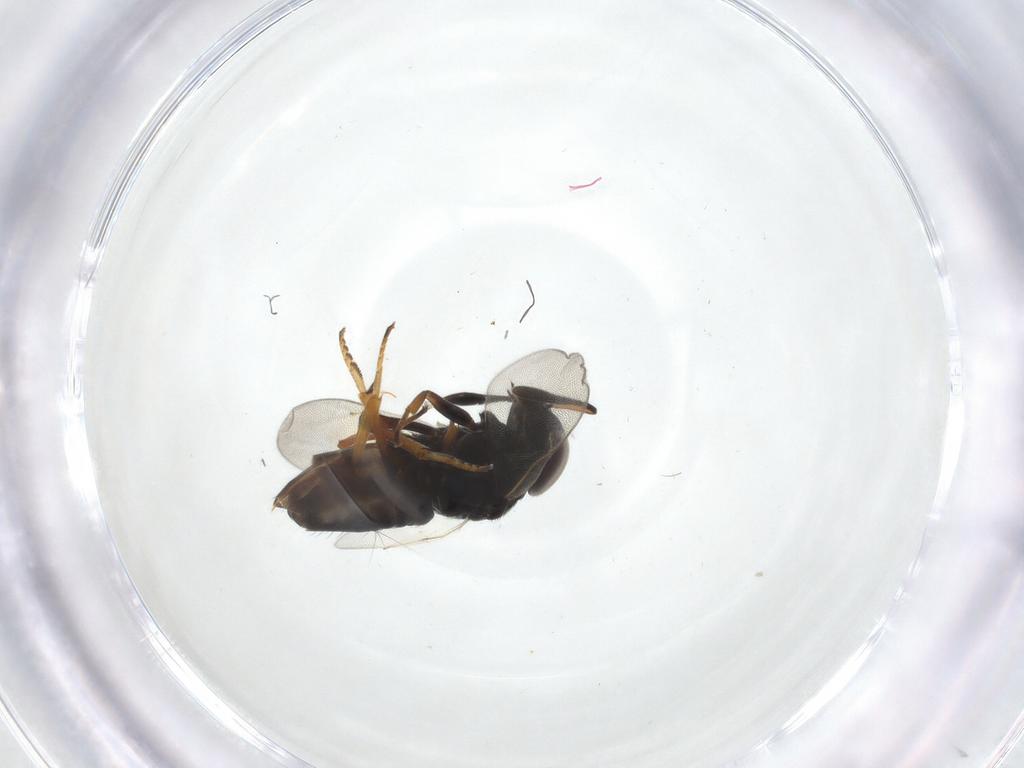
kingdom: Animalia
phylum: Arthropoda
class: Insecta
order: Hymenoptera
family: Encyrtidae
